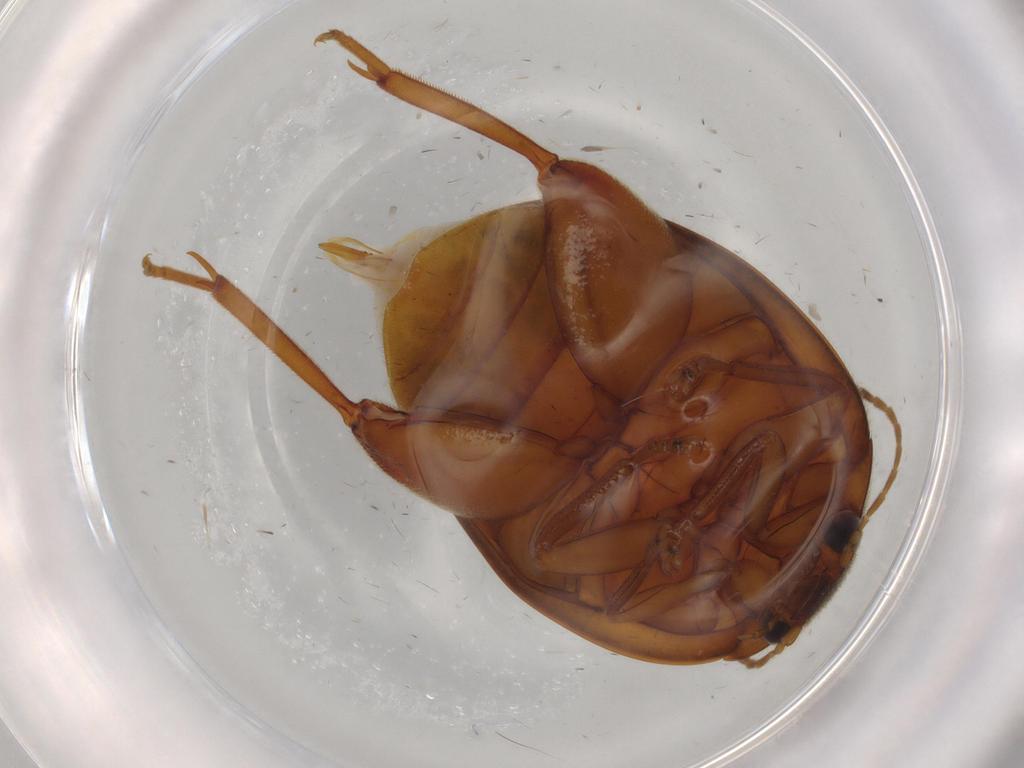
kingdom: Animalia
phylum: Arthropoda
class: Insecta
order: Coleoptera
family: Scirtidae
